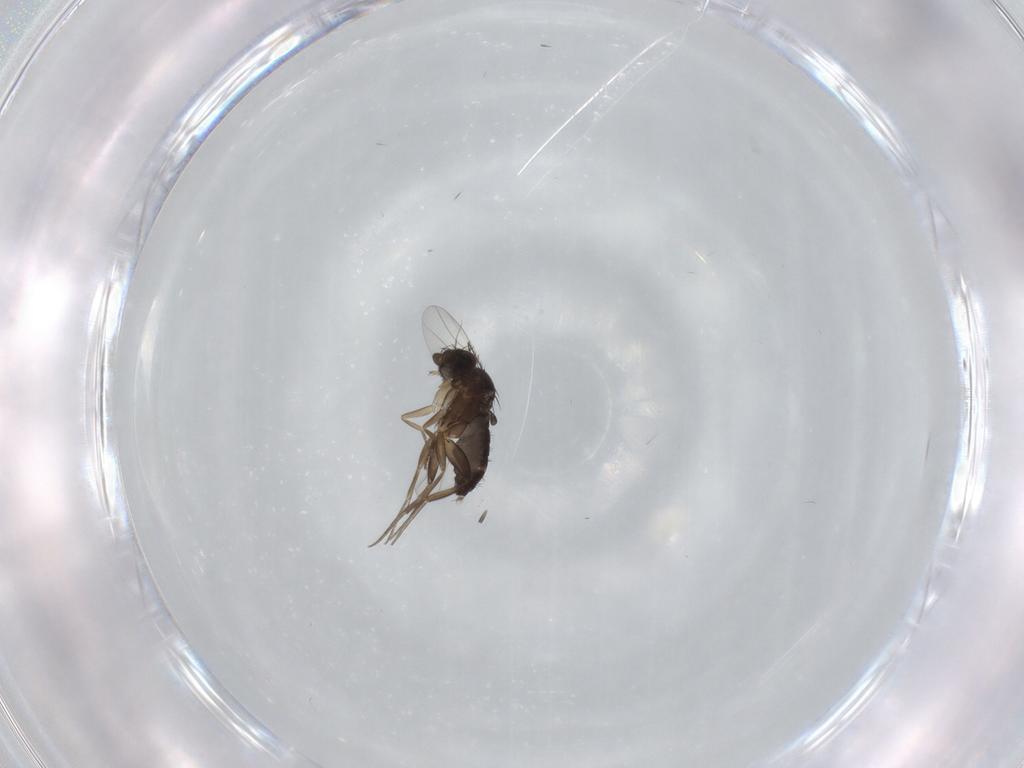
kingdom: Animalia
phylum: Arthropoda
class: Insecta
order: Diptera
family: Phoridae
